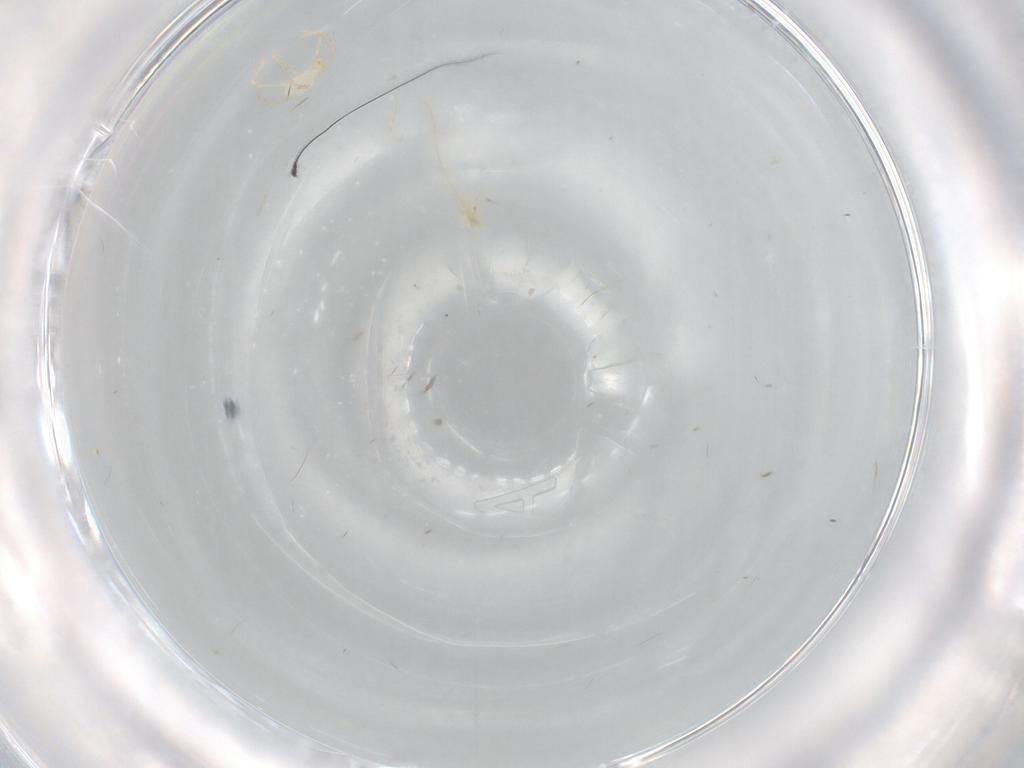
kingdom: Animalia
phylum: Arthropoda
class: Arachnida
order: Trombidiformes
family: Erythraeidae
